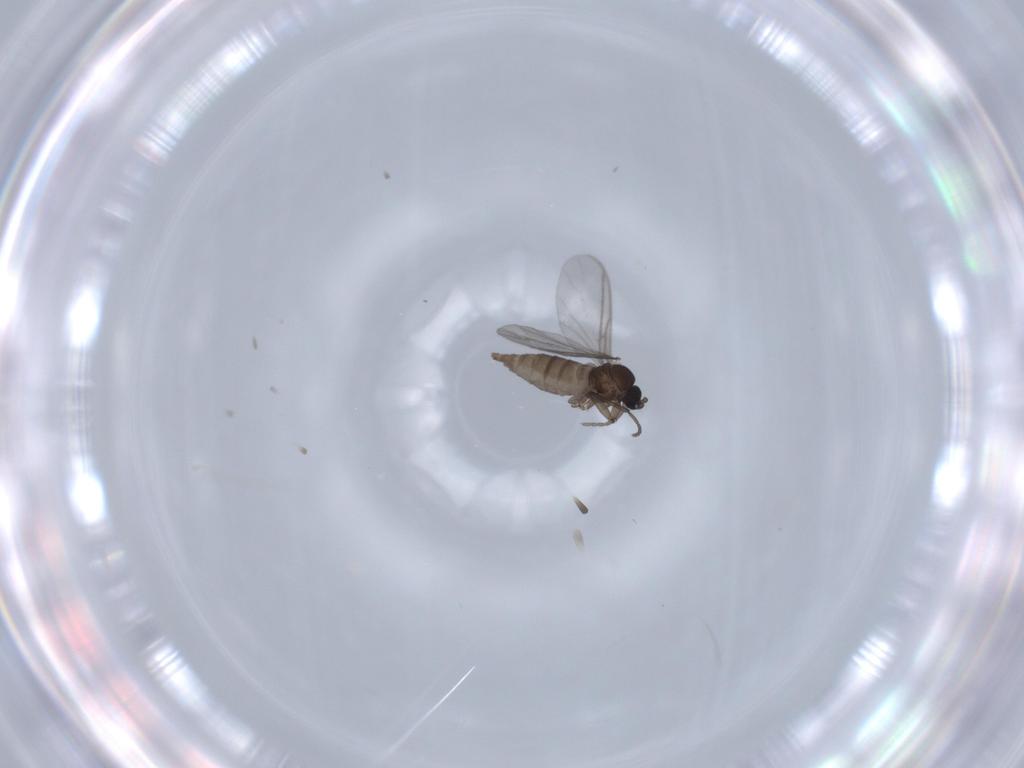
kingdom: Animalia
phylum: Arthropoda
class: Insecta
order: Diptera
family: Sciaridae
